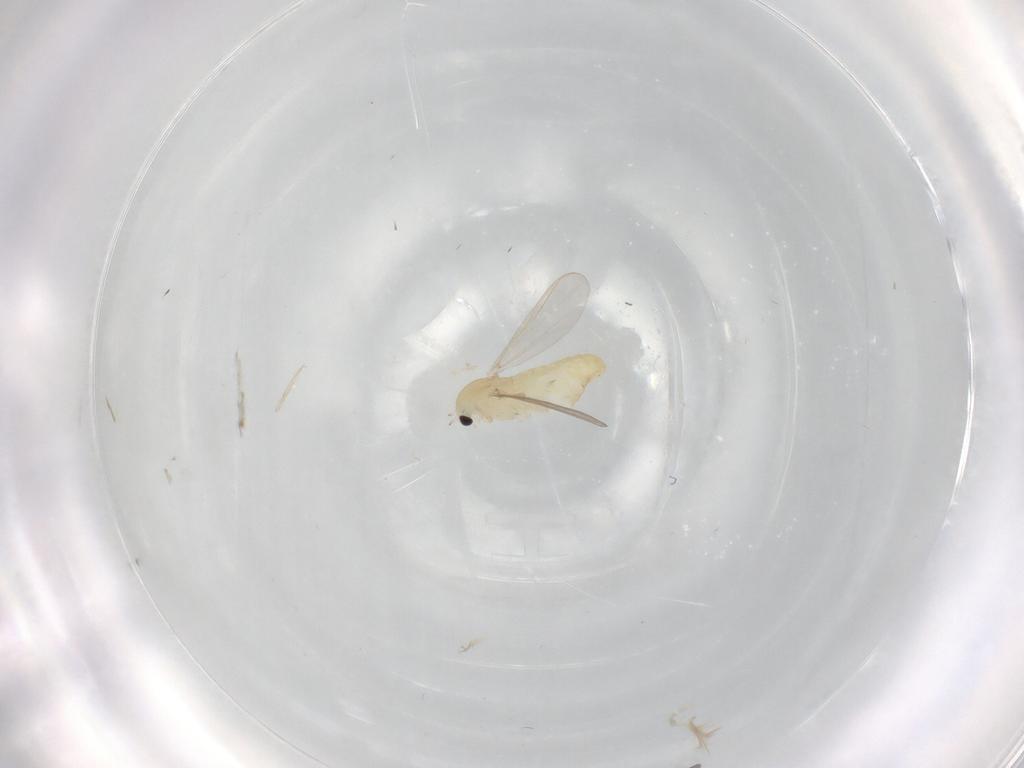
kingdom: Animalia
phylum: Arthropoda
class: Insecta
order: Diptera
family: Chironomidae
